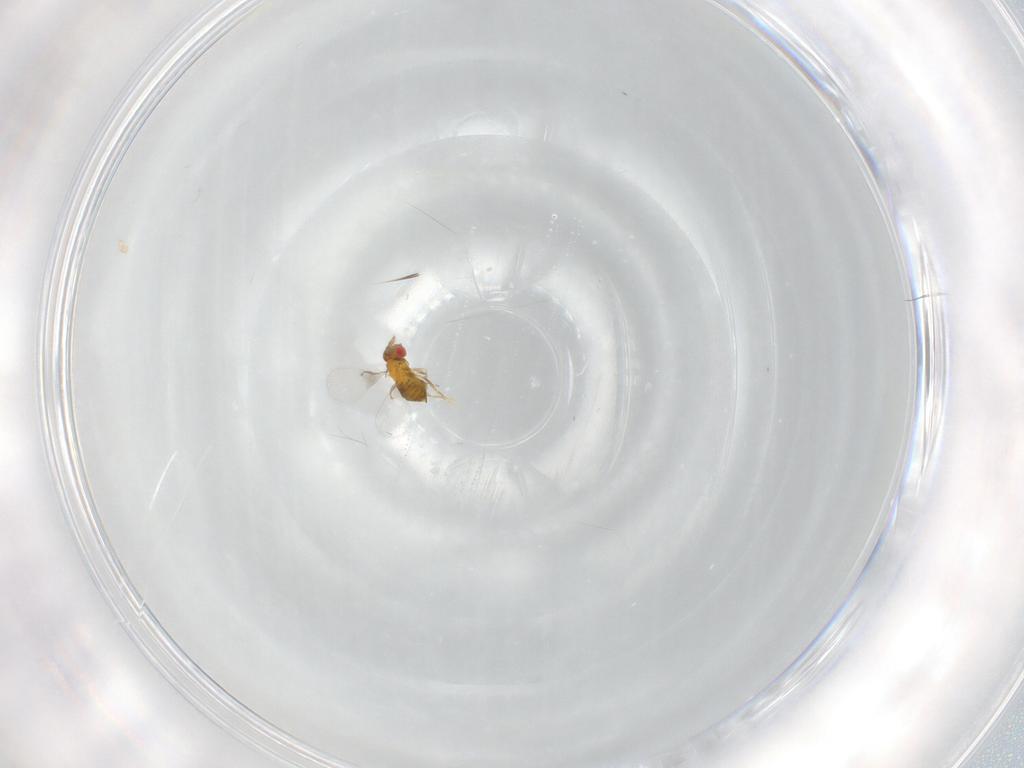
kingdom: Animalia
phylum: Arthropoda
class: Insecta
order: Hymenoptera
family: Trichogrammatidae
